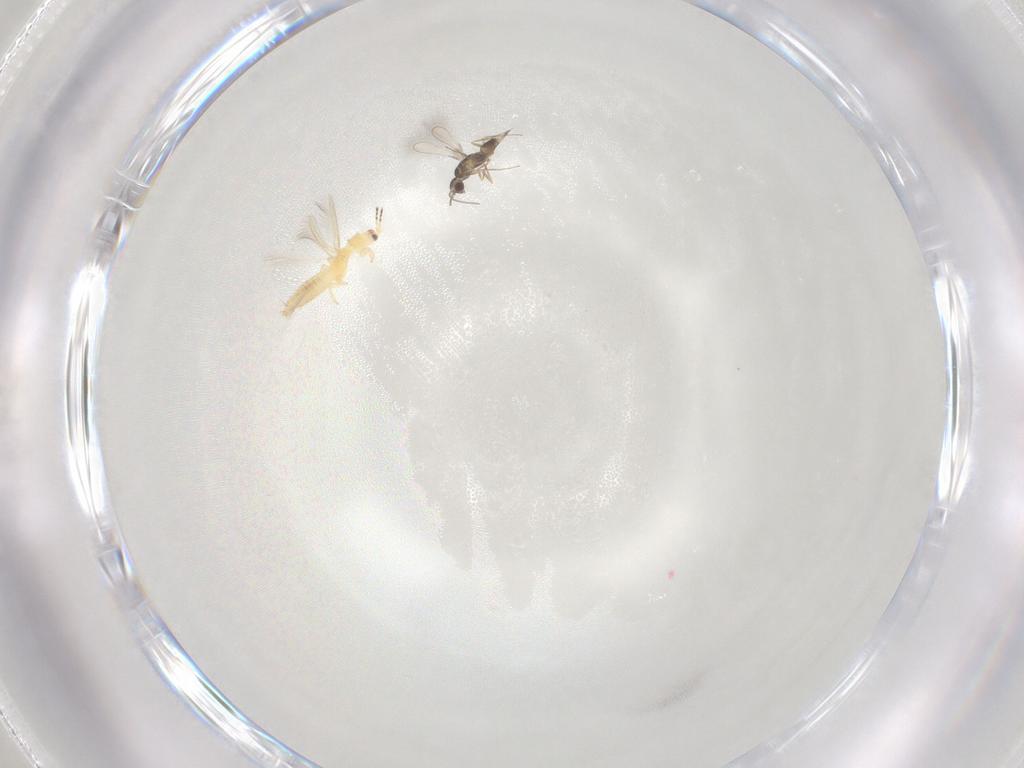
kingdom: Animalia
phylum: Arthropoda
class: Insecta
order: Thysanoptera
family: Thripidae
